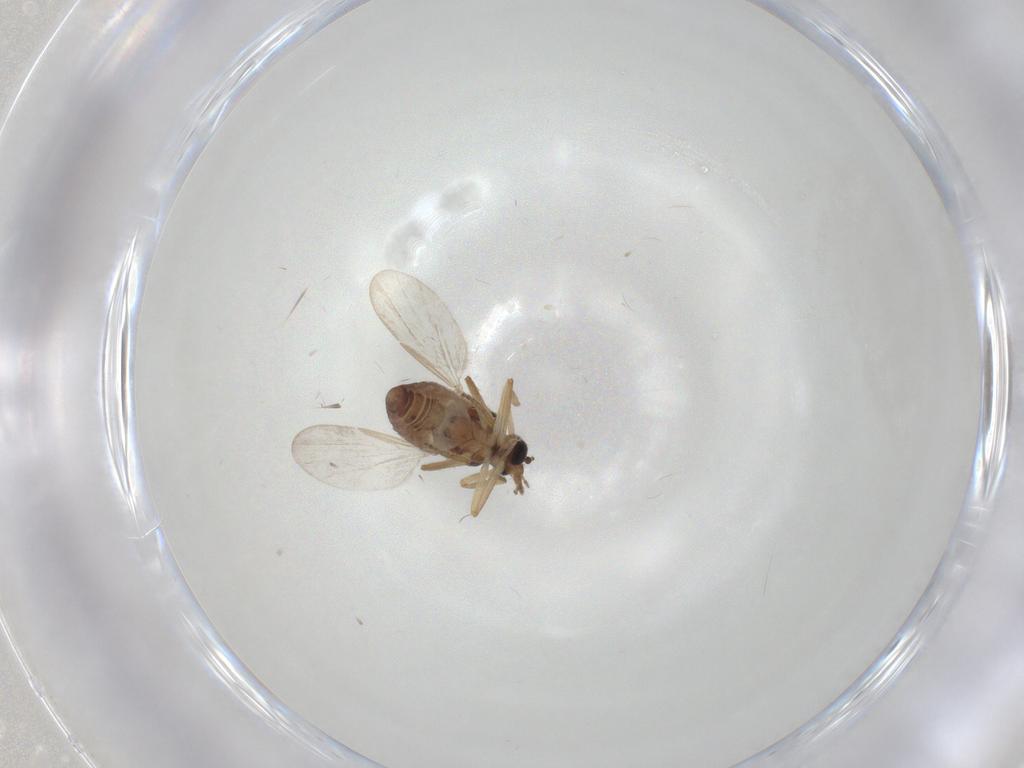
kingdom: Animalia
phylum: Arthropoda
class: Insecta
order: Diptera
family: Ceratopogonidae
